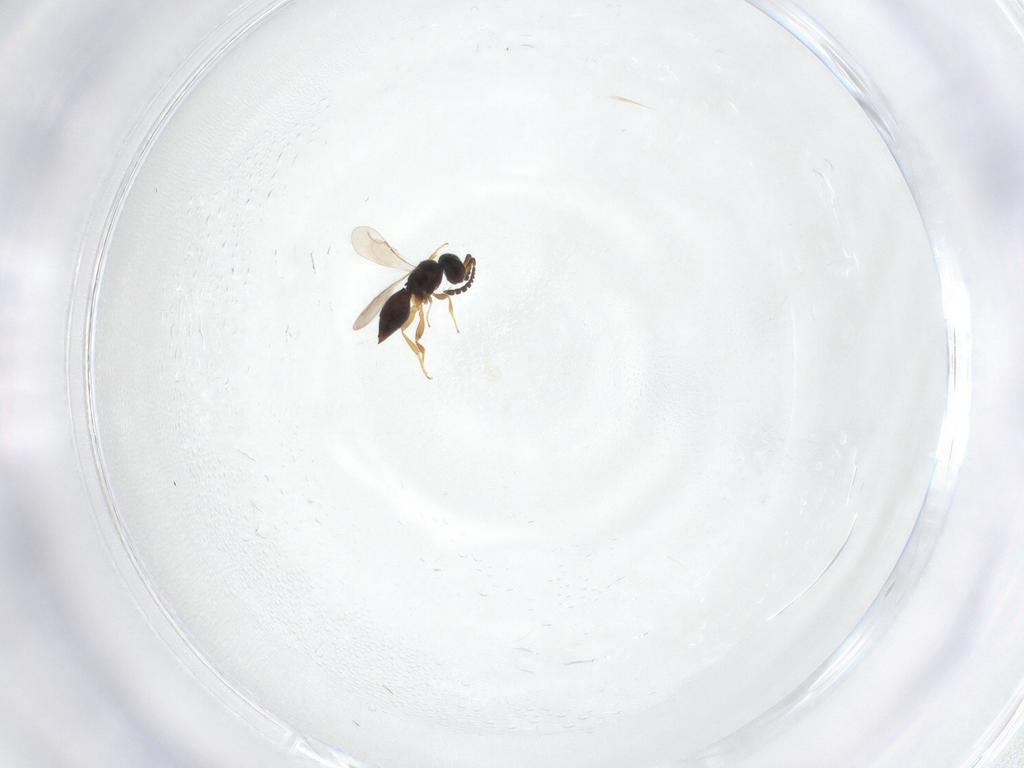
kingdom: Animalia
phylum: Arthropoda
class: Insecta
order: Hymenoptera
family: Ceraphronidae
